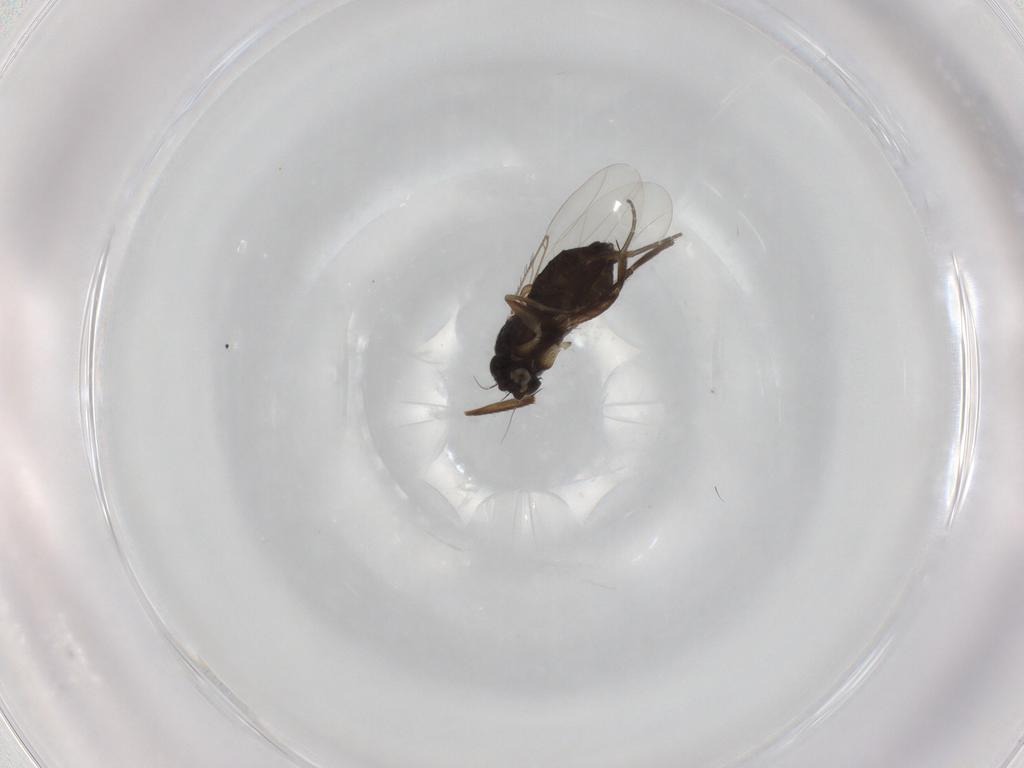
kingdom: Animalia
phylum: Arthropoda
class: Insecta
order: Diptera
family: Phoridae
